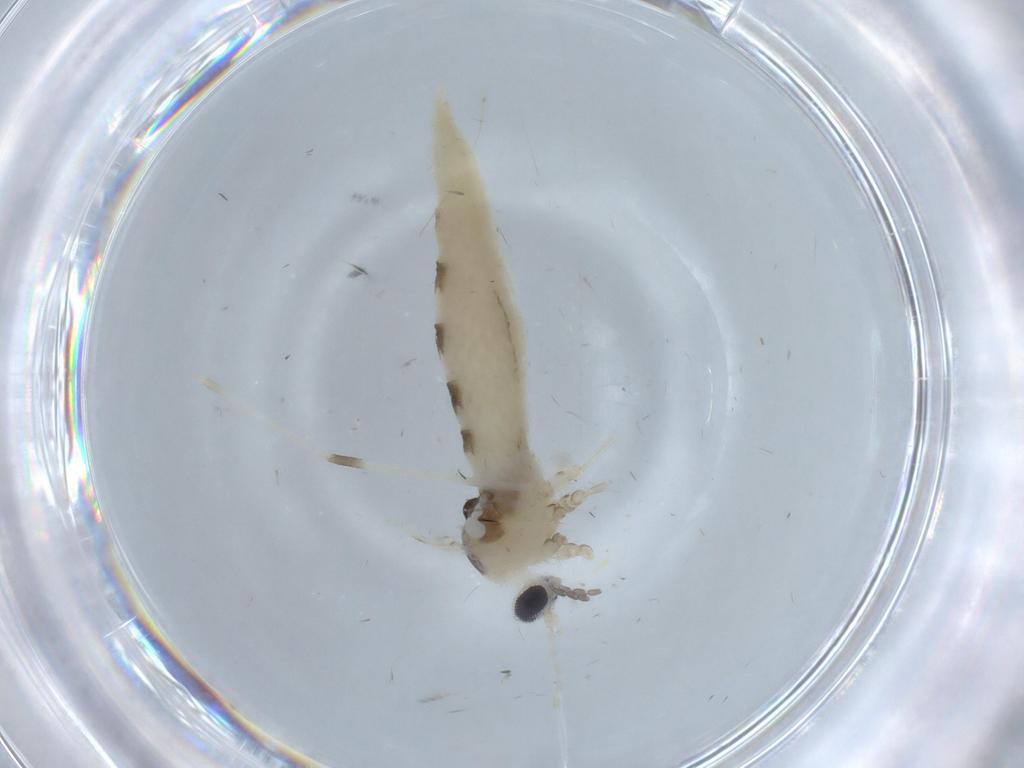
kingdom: Animalia
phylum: Arthropoda
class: Insecta
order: Diptera
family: Cecidomyiidae
